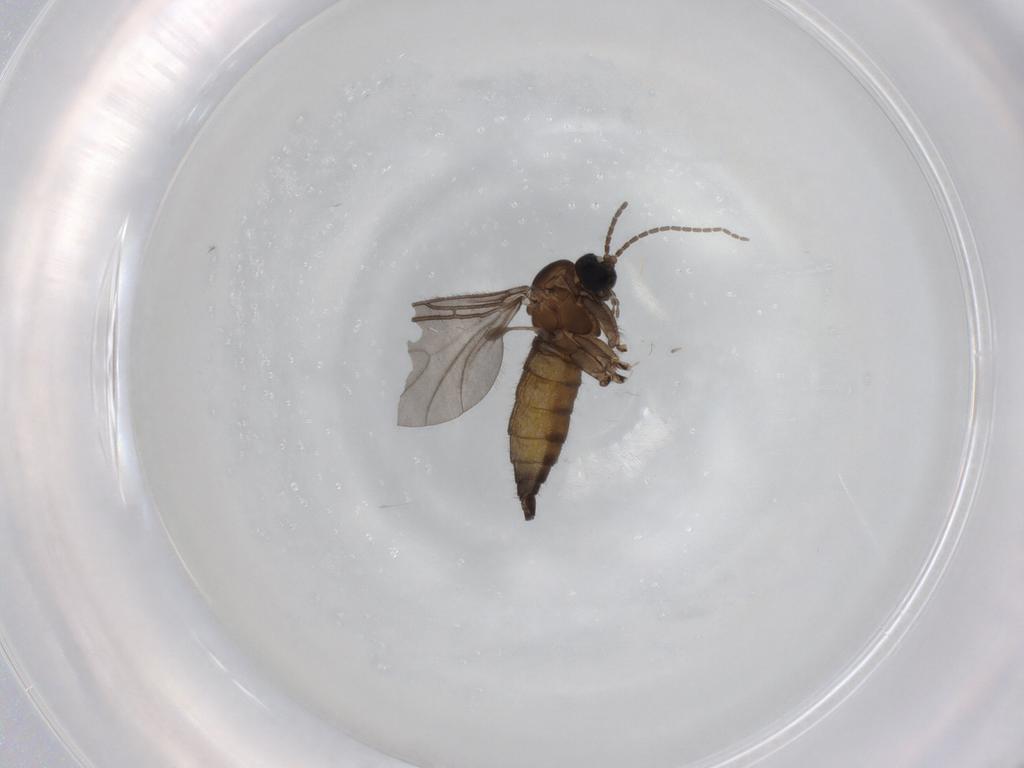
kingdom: Animalia
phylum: Arthropoda
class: Insecta
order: Diptera
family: Sciaridae
